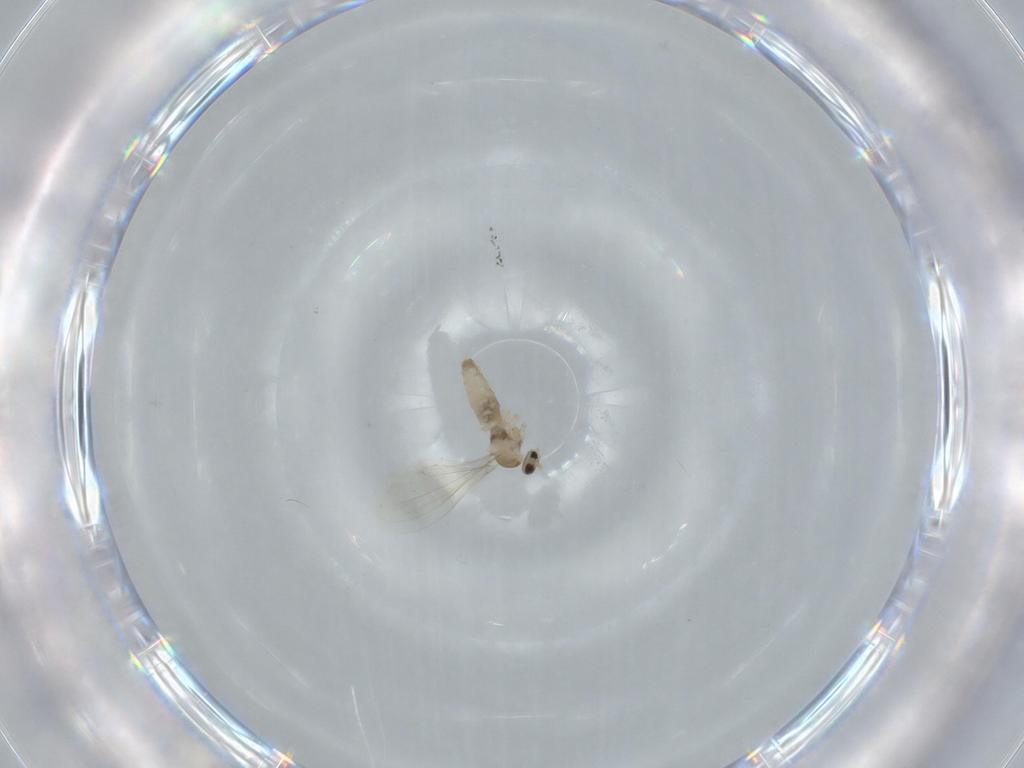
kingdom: Animalia
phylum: Arthropoda
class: Insecta
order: Diptera
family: Cecidomyiidae
